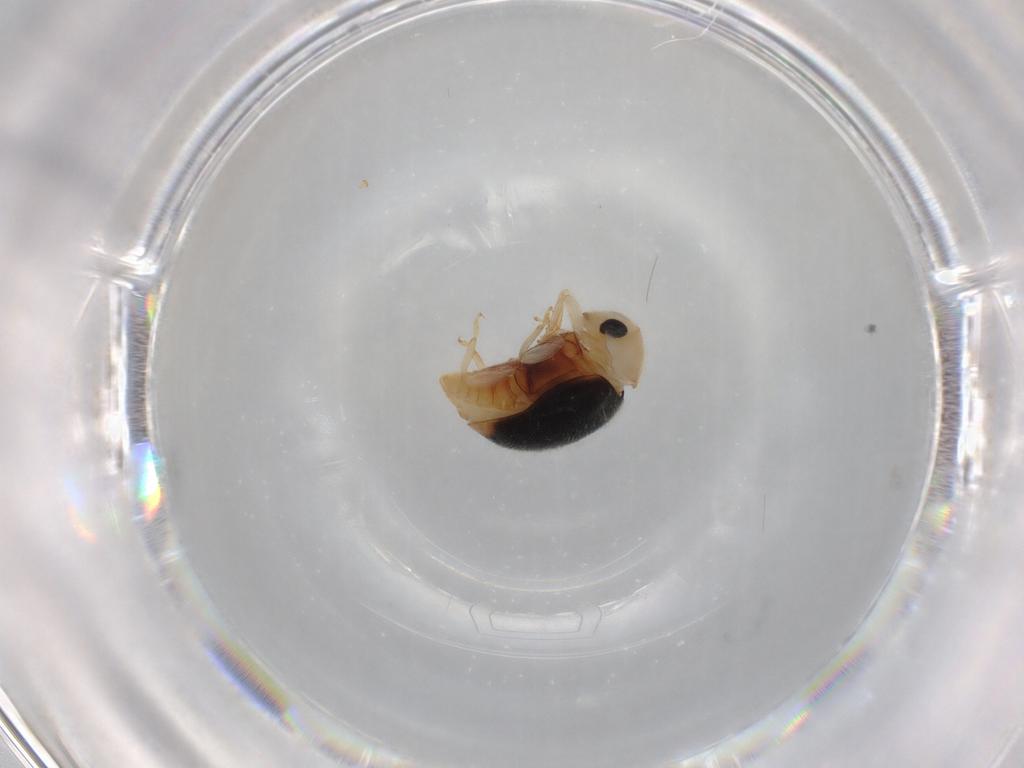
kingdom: Animalia
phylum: Arthropoda
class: Insecta
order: Coleoptera
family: Coccinellidae
